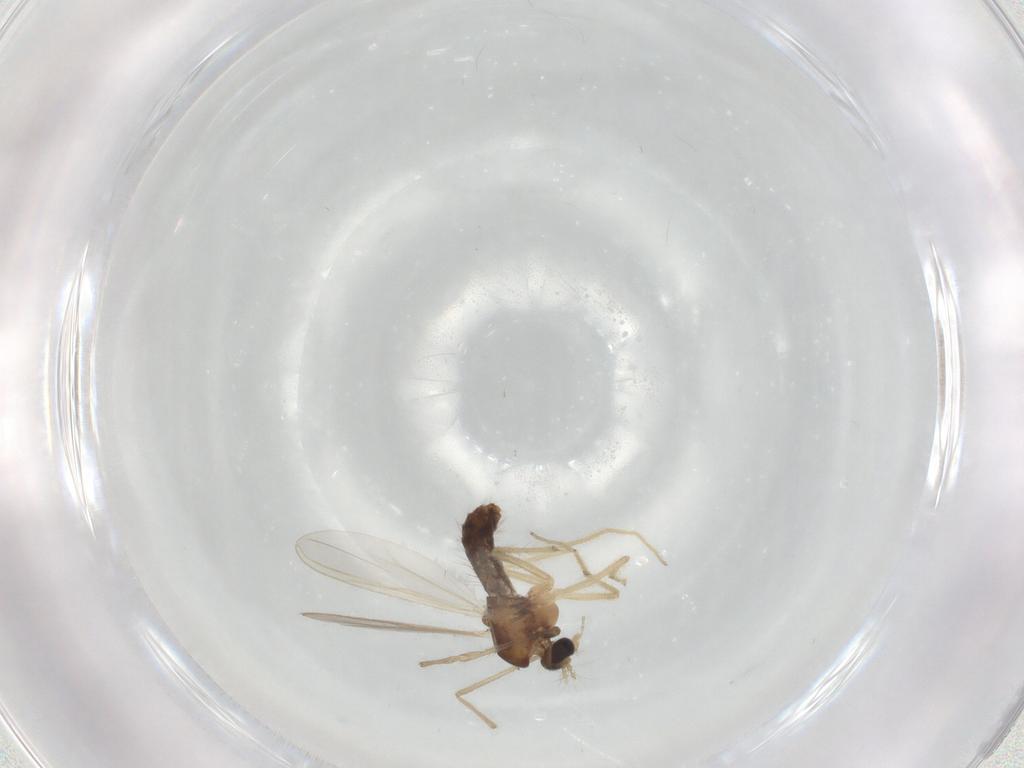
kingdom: Animalia
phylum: Arthropoda
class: Insecta
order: Diptera
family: Chironomidae
